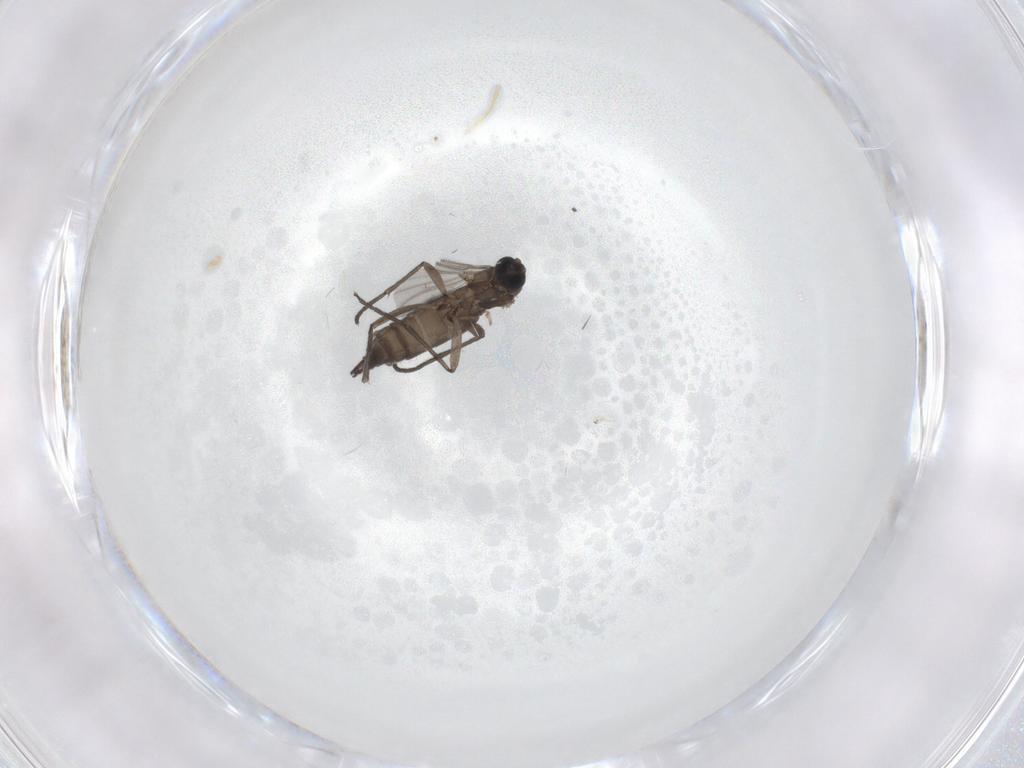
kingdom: Animalia
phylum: Arthropoda
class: Insecta
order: Diptera
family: Sciaridae
